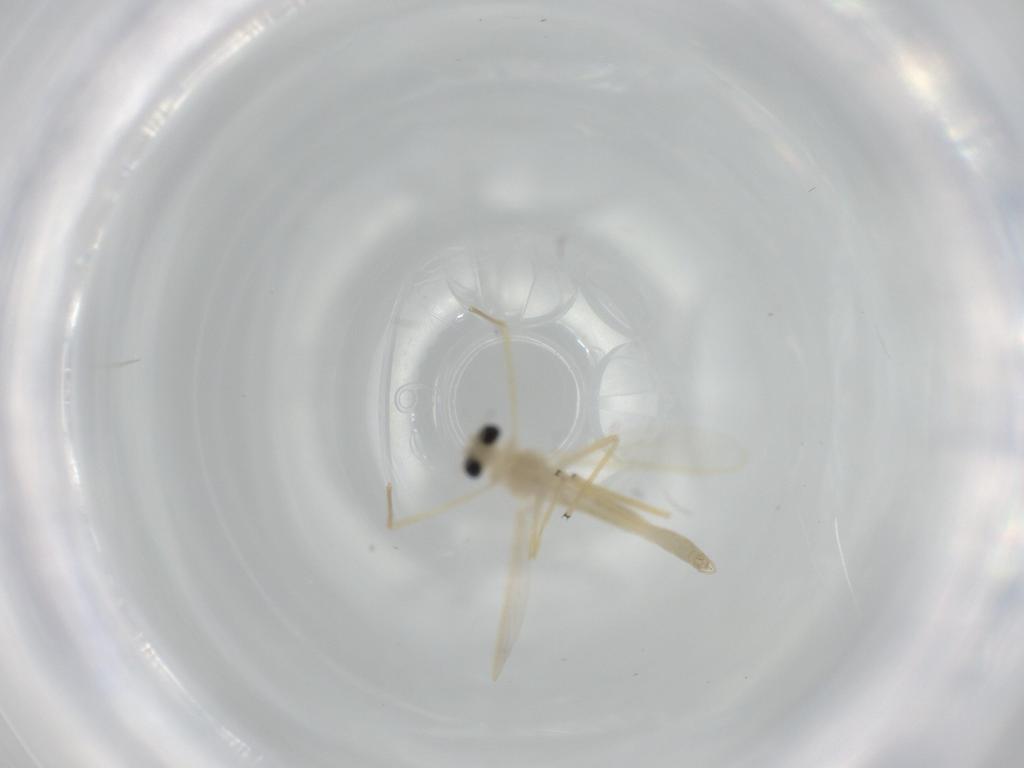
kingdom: Animalia
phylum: Arthropoda
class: Insecta
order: Diptera
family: Chironomidae
